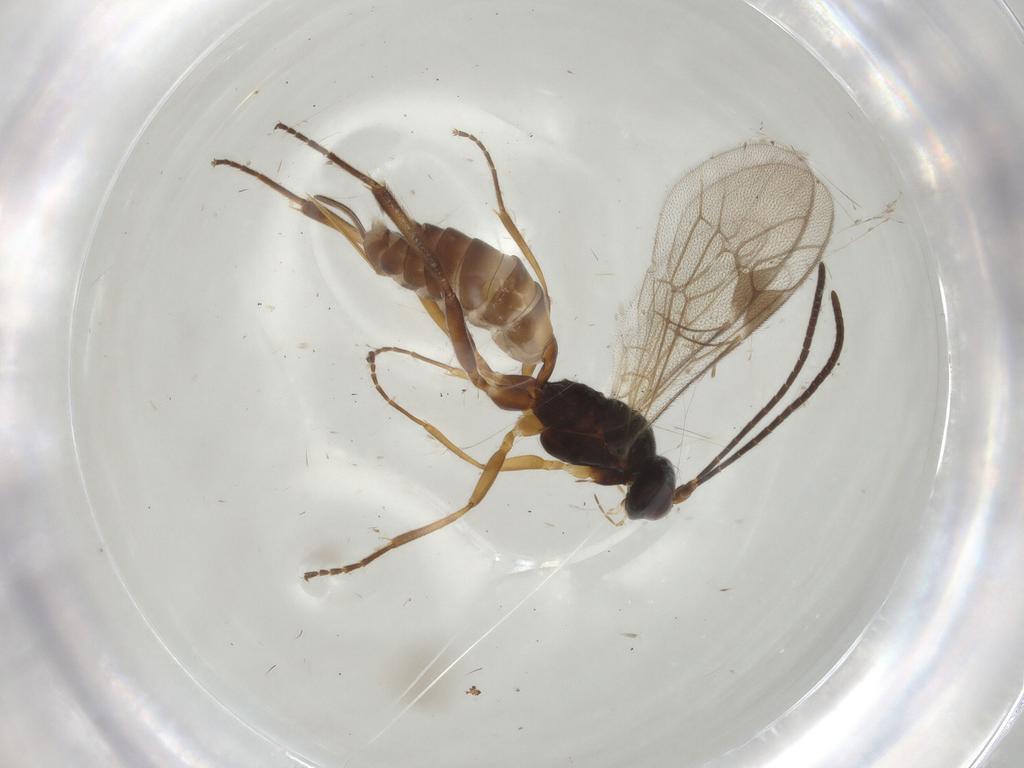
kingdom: Animalia
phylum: Arthropoda
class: Insecta
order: Hymenoptera
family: Ichneumonidae
